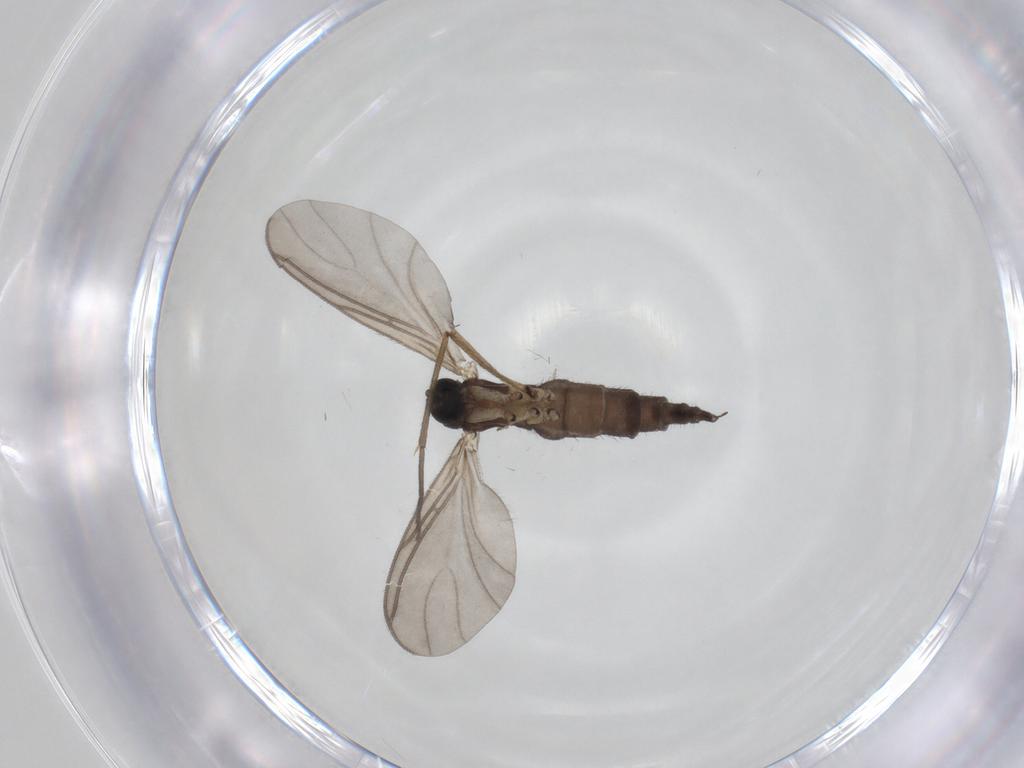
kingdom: Animalia
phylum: Arthropoda
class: Insecta
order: Diptera
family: Sciaridae
